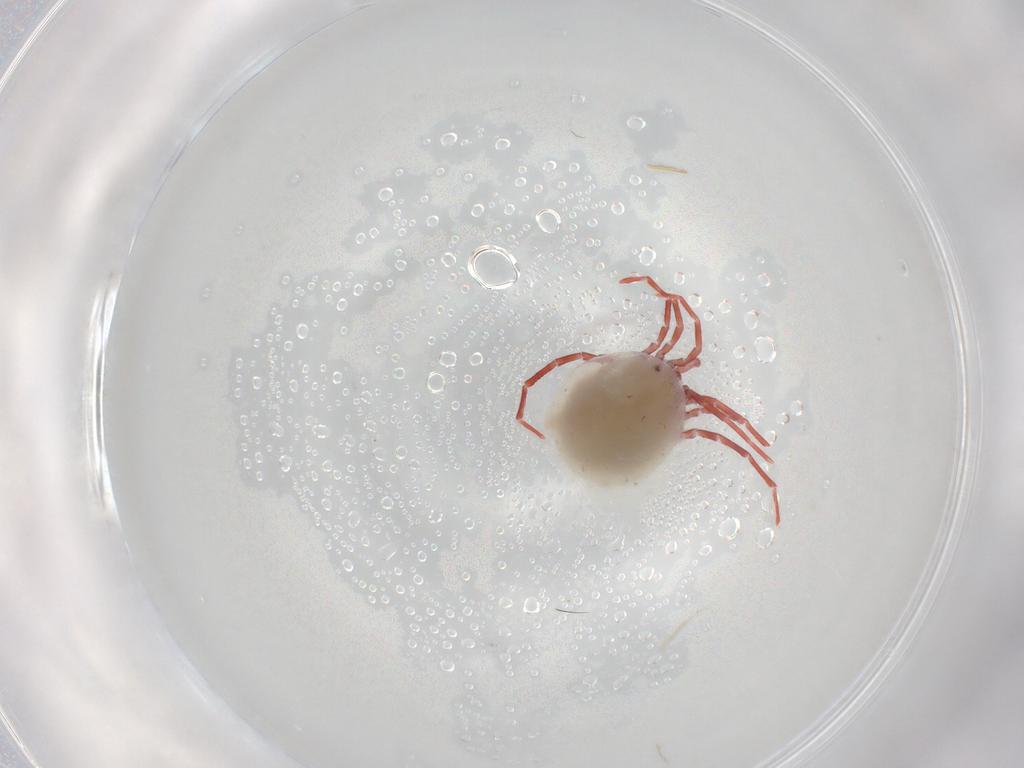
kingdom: Animalia
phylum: Arthropoda
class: Arachnida
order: Trombidiformes
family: Pionidae
